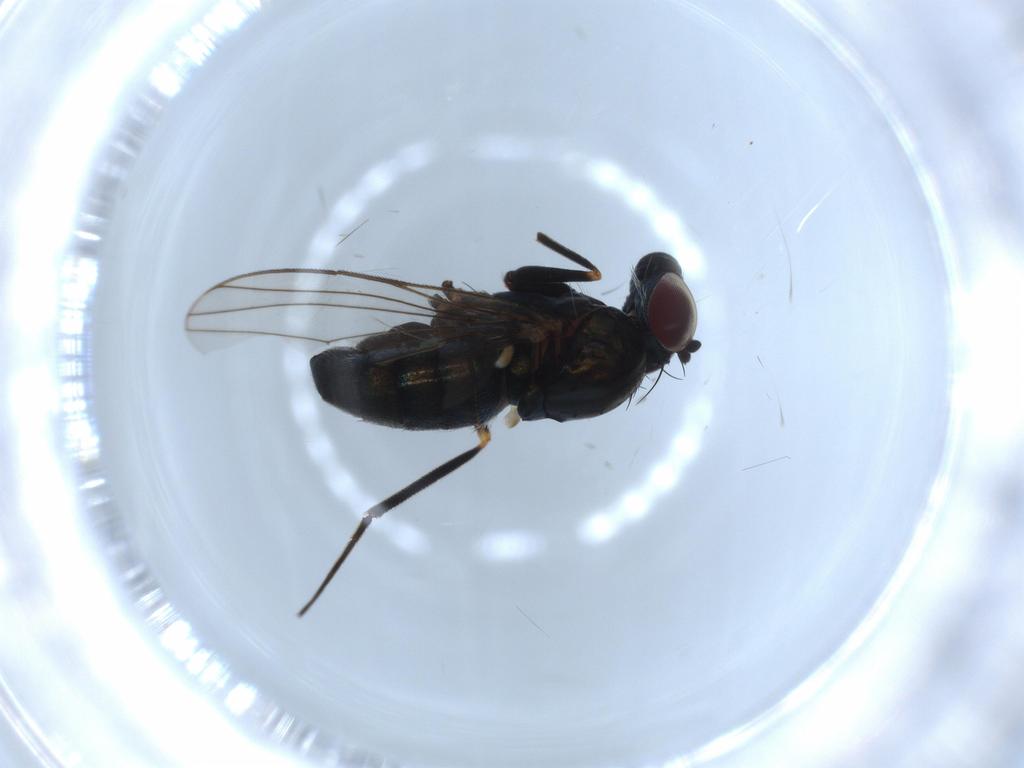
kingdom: Animalia
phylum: Arthropoda
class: Insecta
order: Diptera
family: Dolichopodidae
